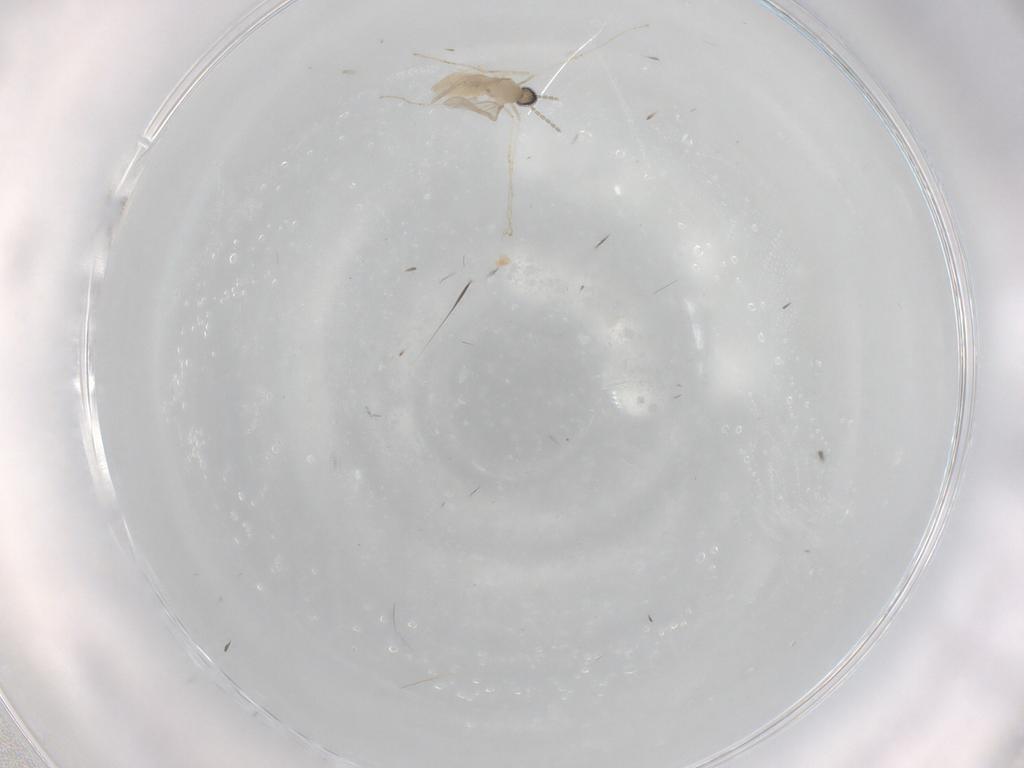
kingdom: Animalia
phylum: Arthropoda
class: Insecta
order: Diptera
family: Cecidomyiidae
